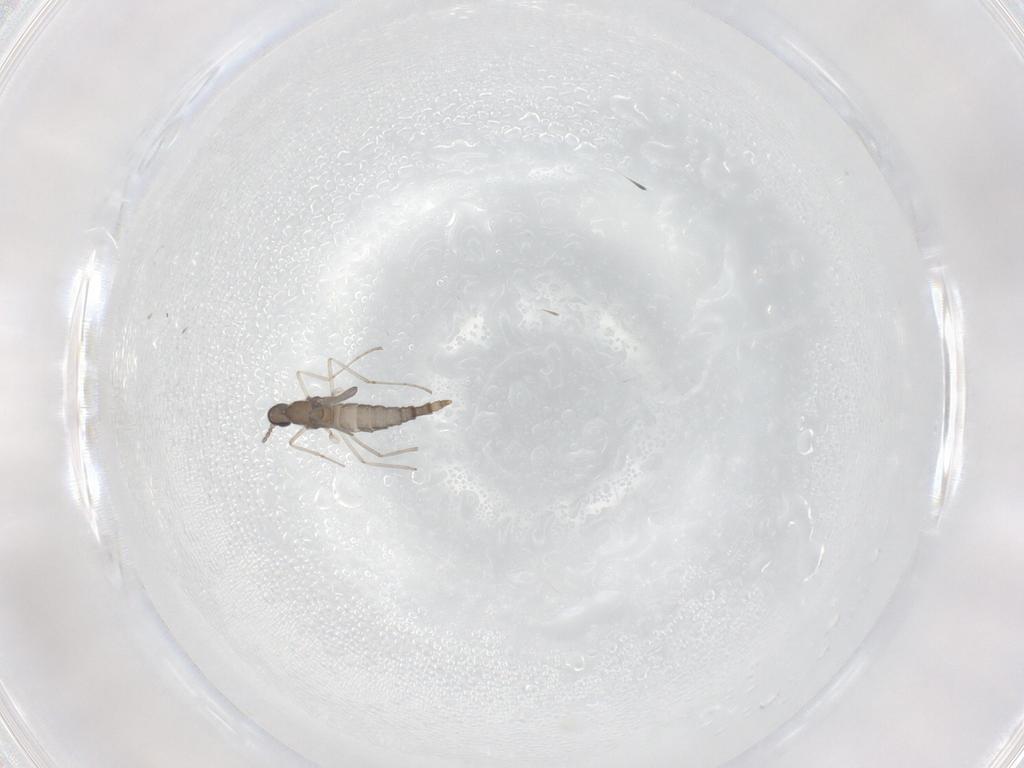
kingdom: Animalia
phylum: Arthropoda
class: Insecta
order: Diptera
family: Cecidomyiidae
